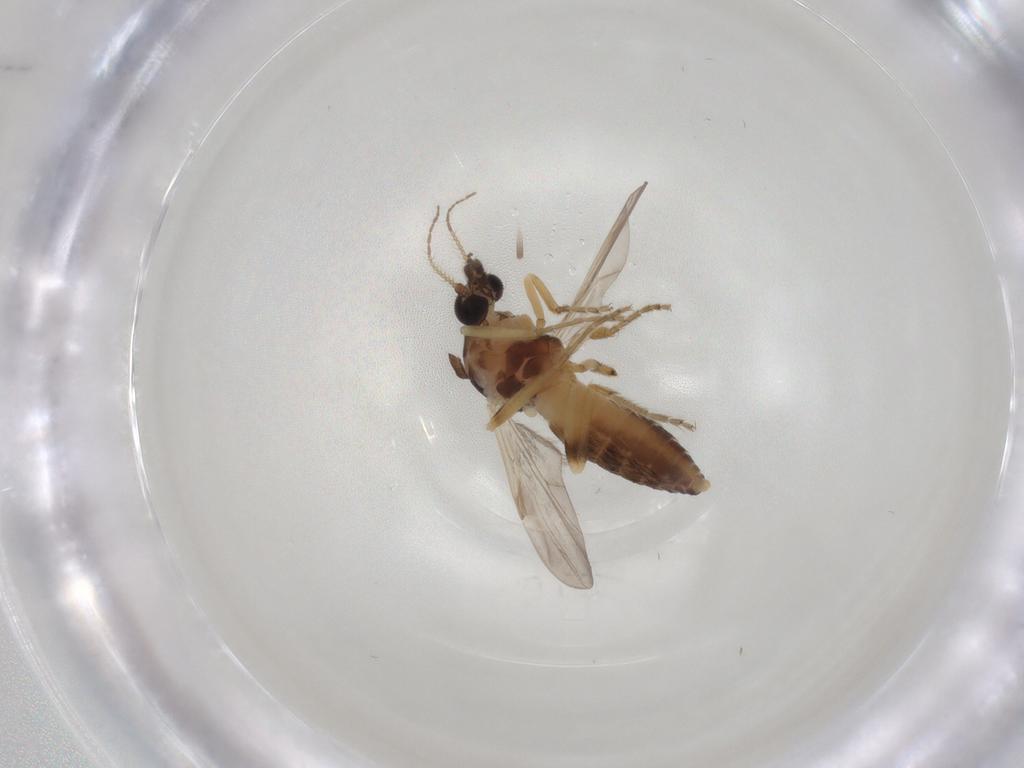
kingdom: Animalia
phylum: Arthropoda
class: Insecta
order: Diptera
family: Ceratopogonidae
